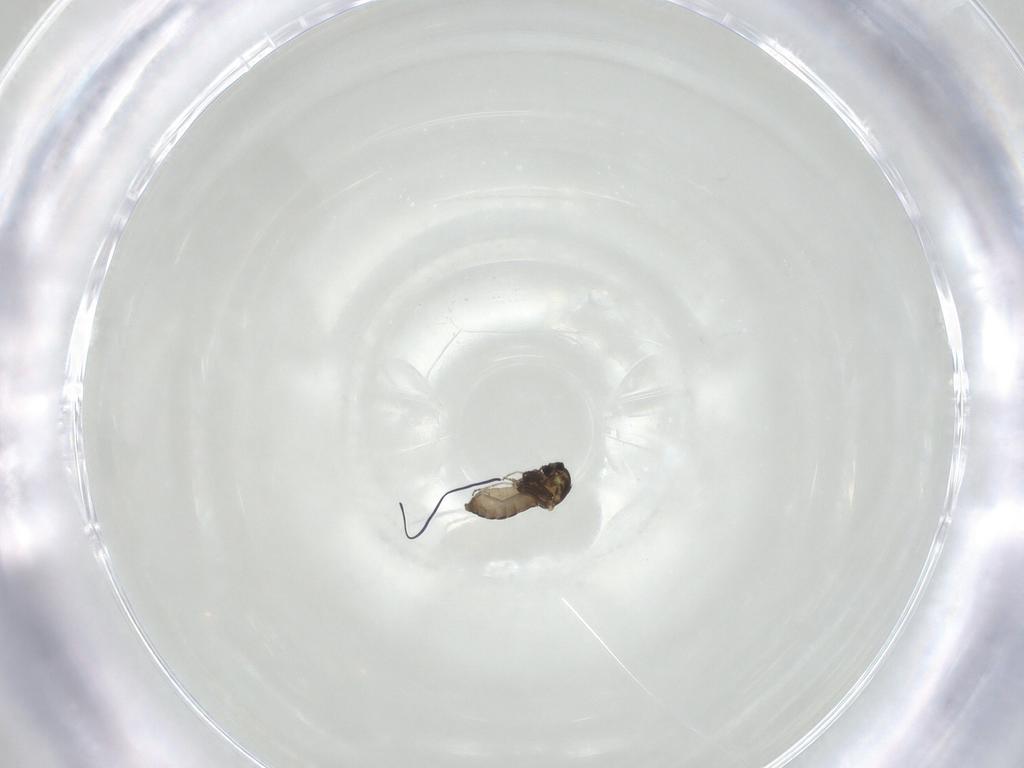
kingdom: Animalia
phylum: Arthropoda
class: Insecta
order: Diptera
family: Ceratopogonidae
